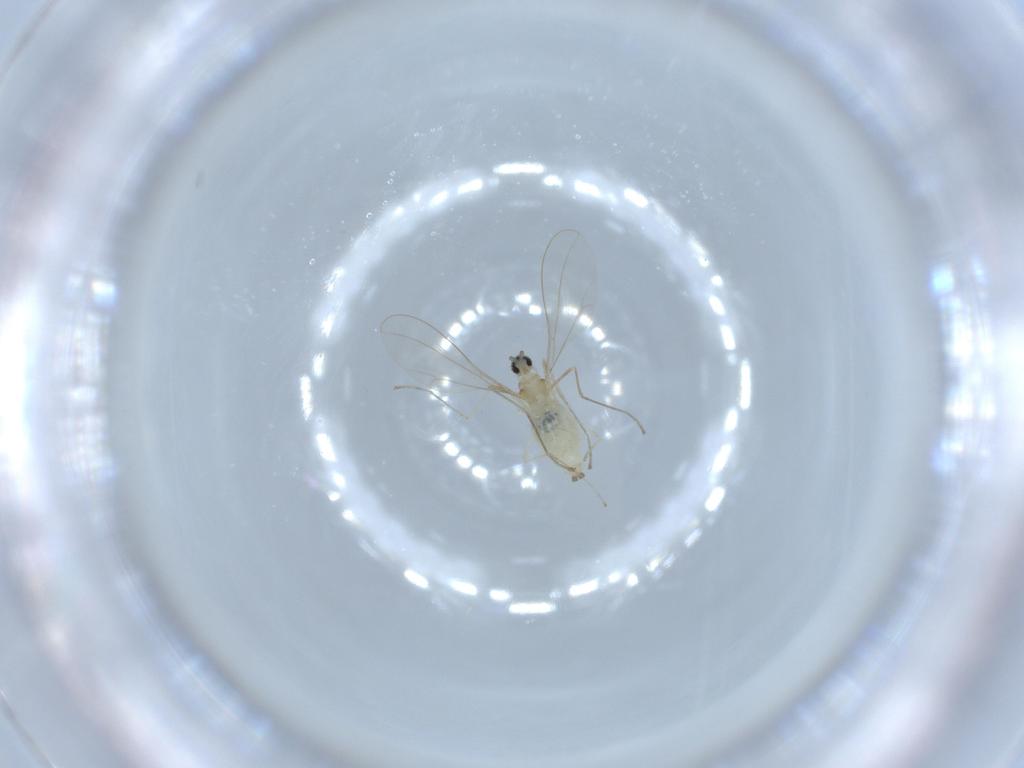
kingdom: Animalia
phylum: Arthropoda
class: Insecta
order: Diptera
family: Cecidomyiidae
